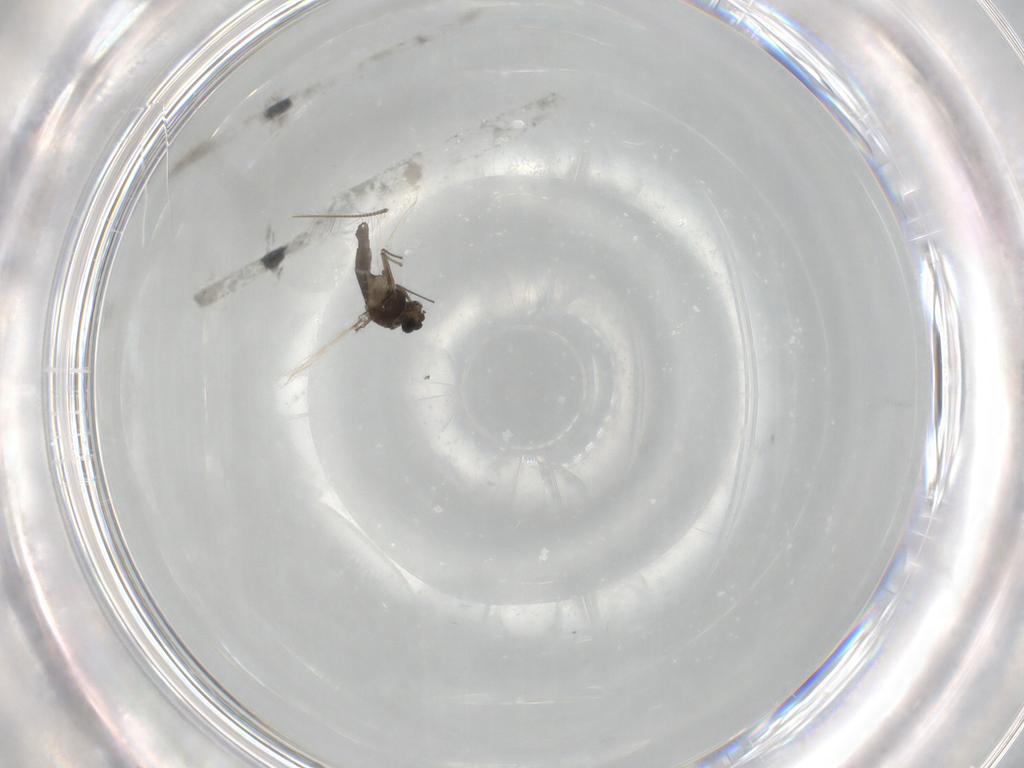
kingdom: Animalia
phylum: Arthropoda
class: Insecta
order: Diptera
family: Chironomidae
